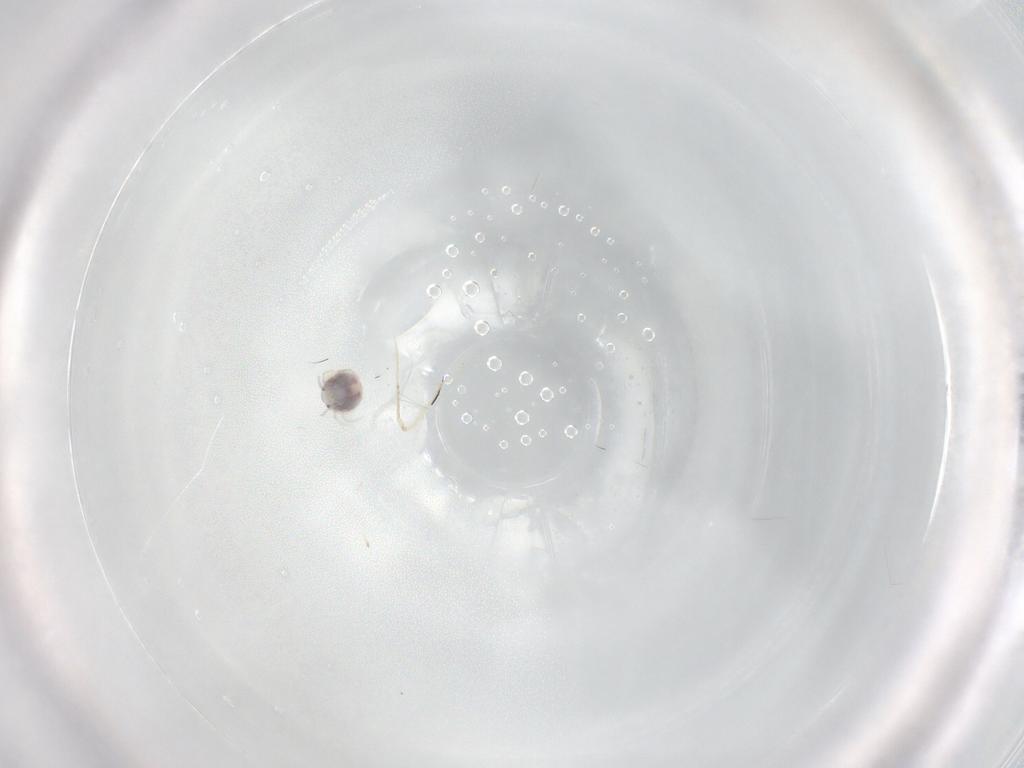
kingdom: Animalia
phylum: Arthropoda
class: Arachnida
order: Trombidiformes
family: Pionidae
